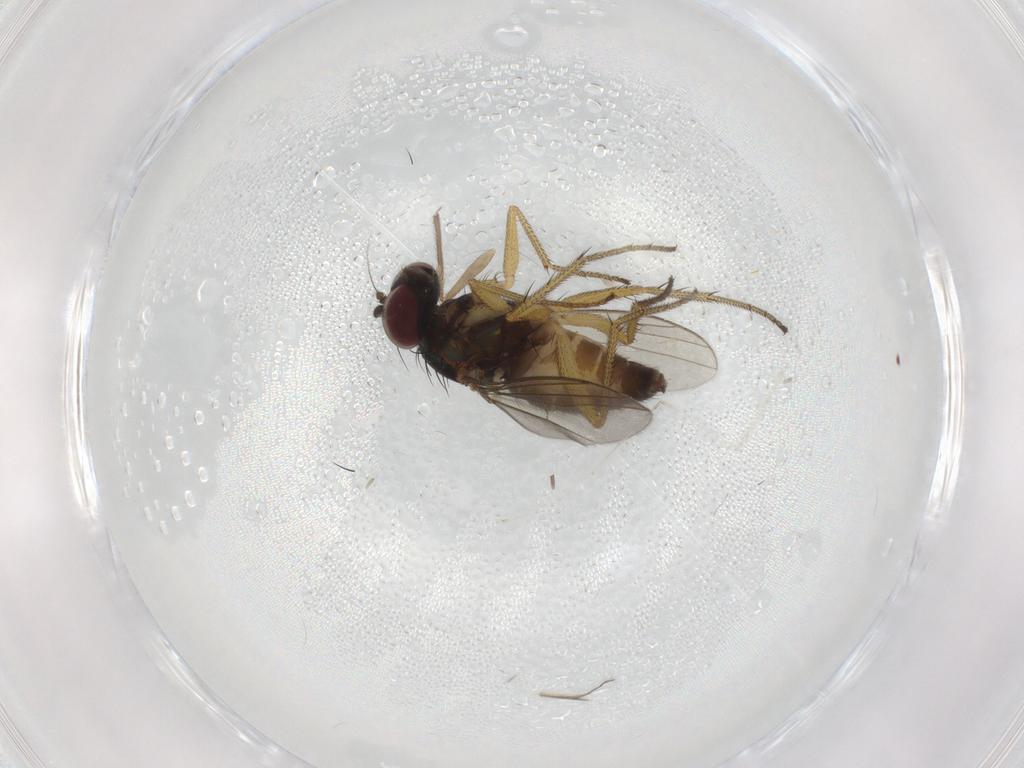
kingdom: Animalia
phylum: Arthropoda
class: Insecta
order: Diptera
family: Dolichopodidae
